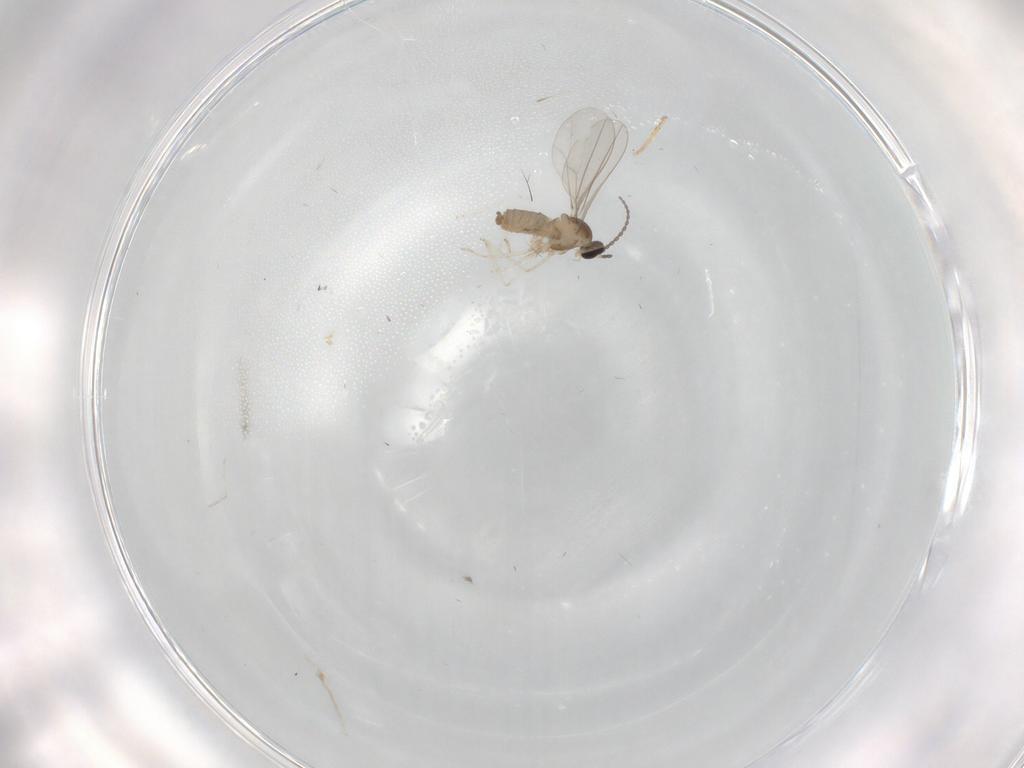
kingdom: Animalia
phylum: Arthropoda
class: Insecta
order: Diptera
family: Cecidomyiidae
